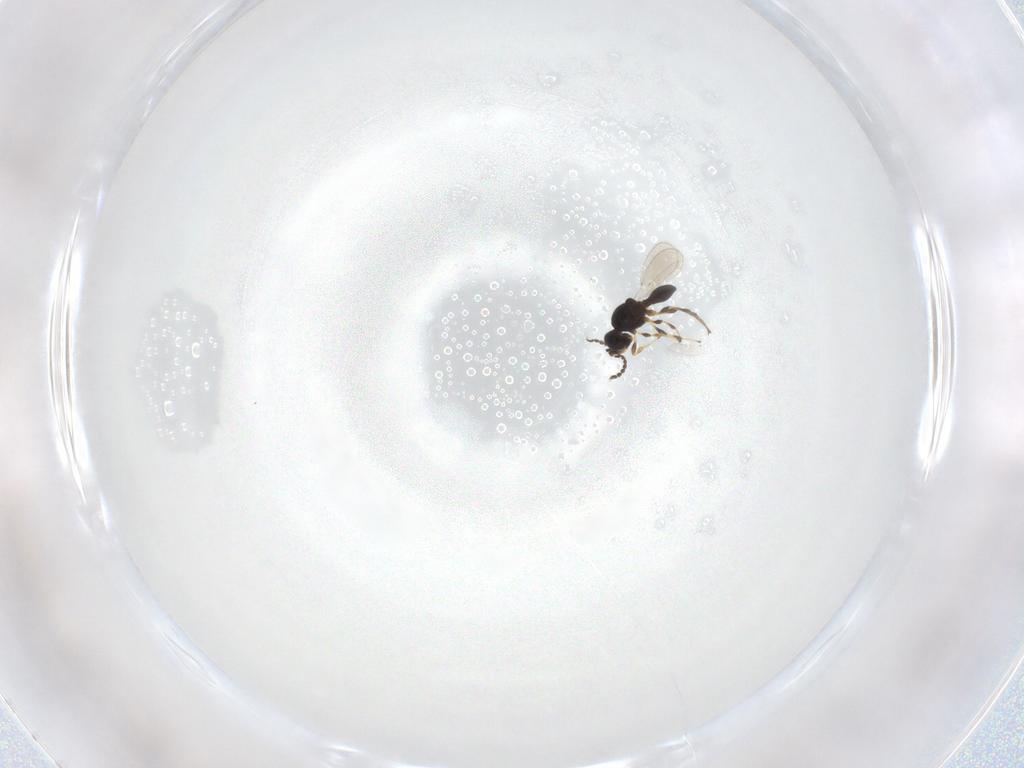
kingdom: Animalia
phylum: Arthropoda
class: Insecta
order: Hymenoptera
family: Platygastridae
